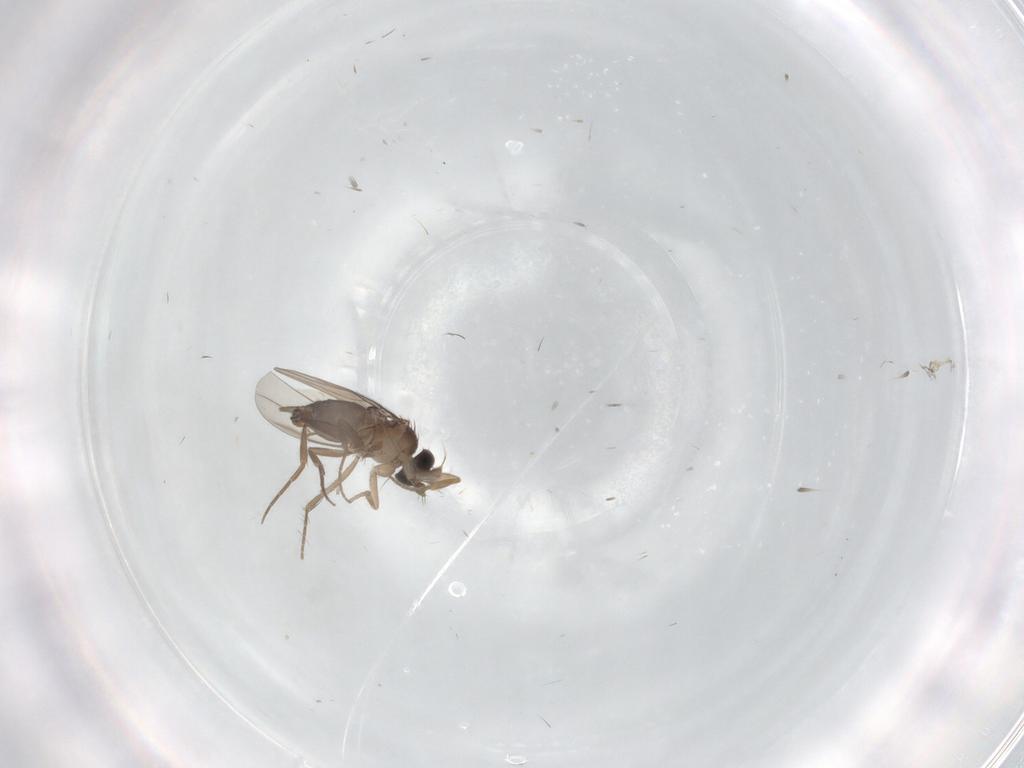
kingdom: Animalia
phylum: Arthropoda
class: Insecta
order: Diptera
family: Phoridae
